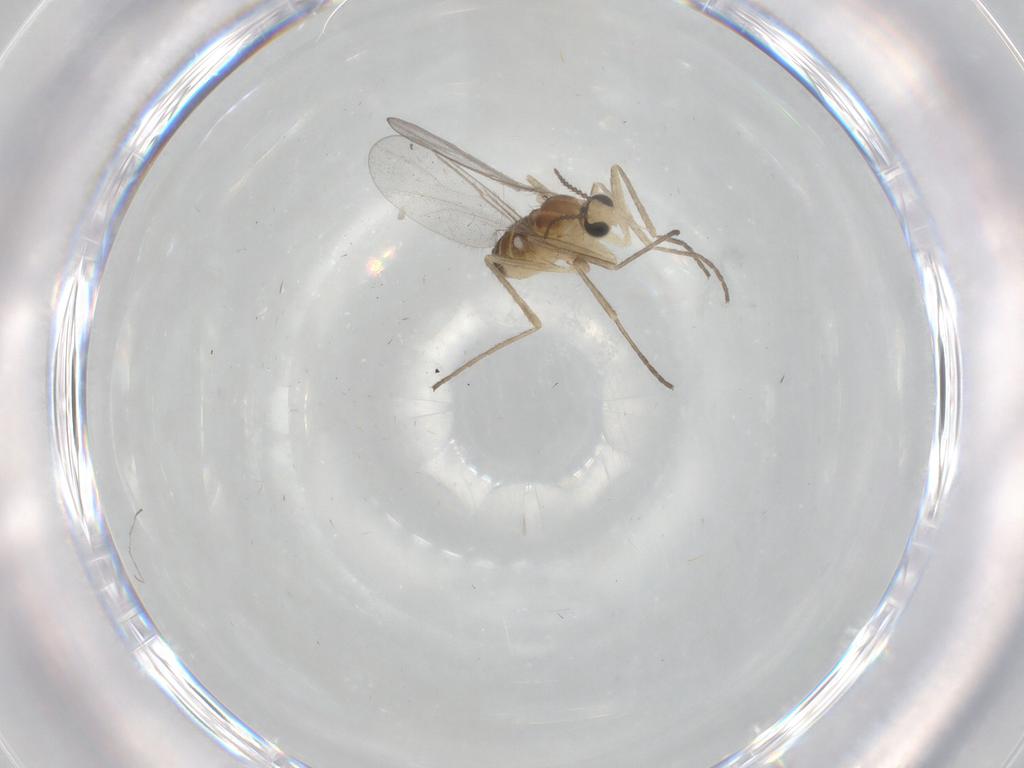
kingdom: Animalia
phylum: Arthropoda
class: Insecta
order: Diptera
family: Cecidomyiidae
